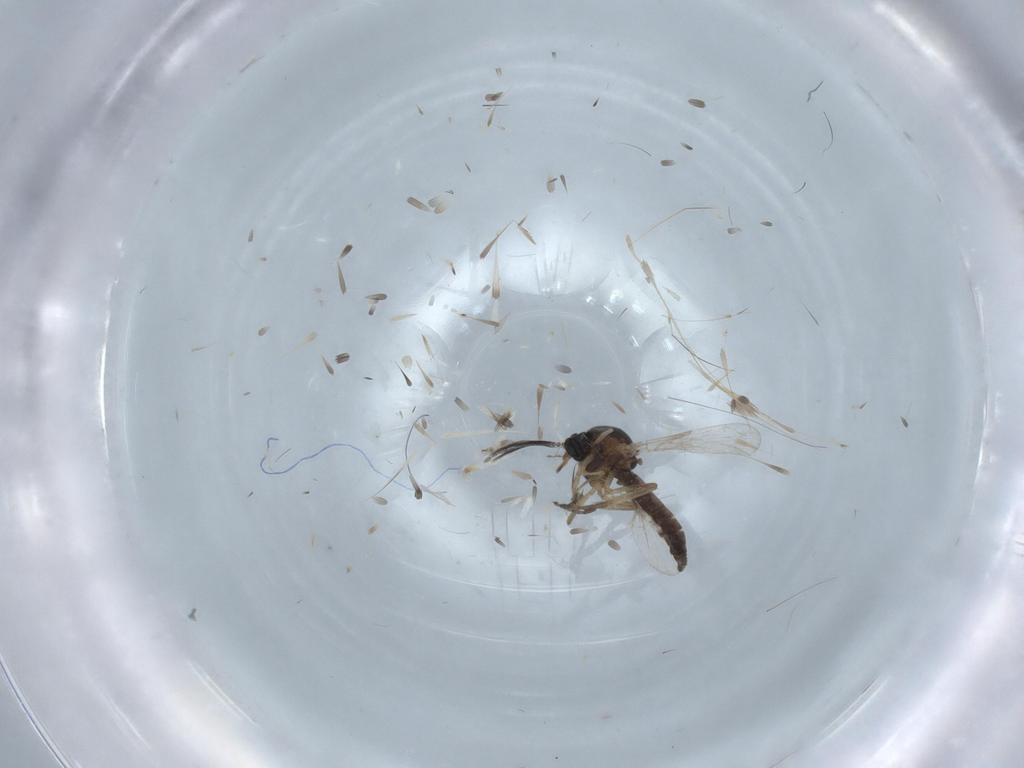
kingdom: Animalia
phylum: Arthropoda
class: Insecta
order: Diptera
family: Ceratopogonidae
